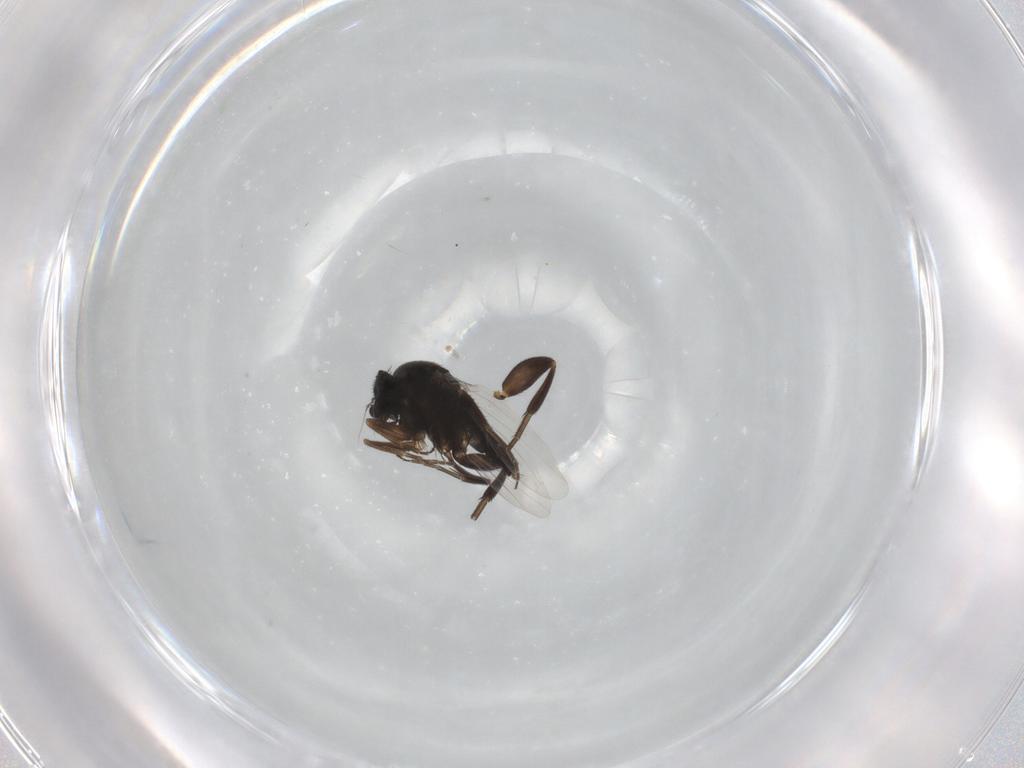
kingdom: Animalia
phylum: Arthropoda
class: Insecta
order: Diptera
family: Phoridae
